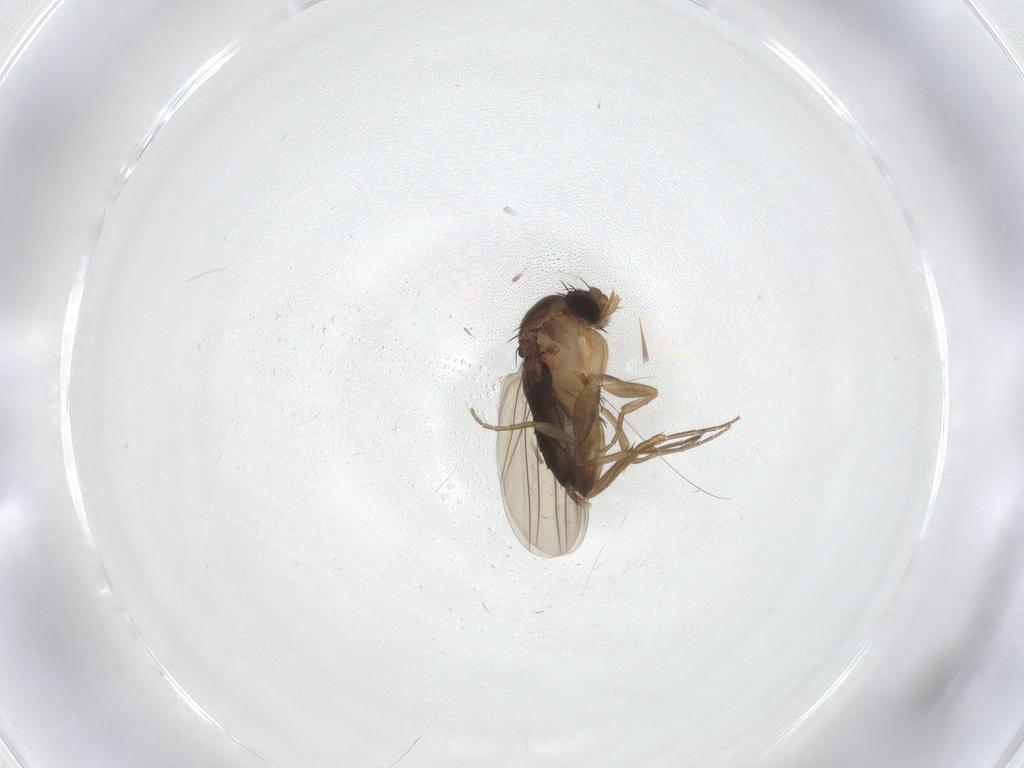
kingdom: Animalia
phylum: Arthropoda
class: Insecta
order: Diptera
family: Phoridae
